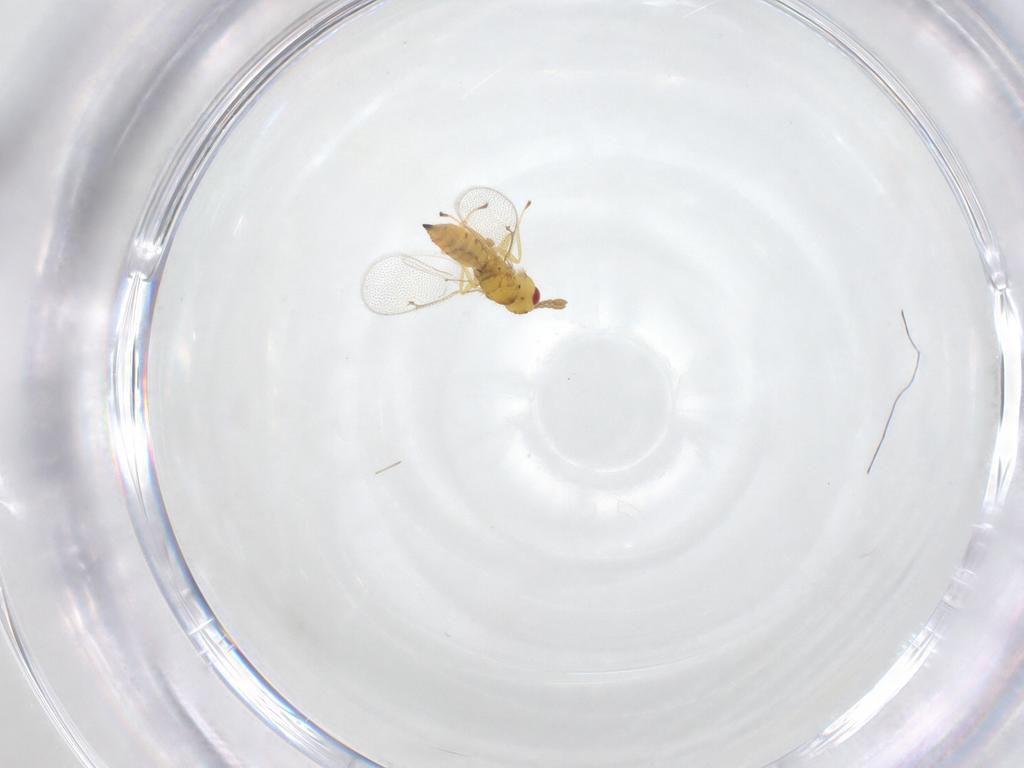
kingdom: Animalia
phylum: Arthropoda
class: Insecta
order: Hymenoptera
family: Eulophidae
